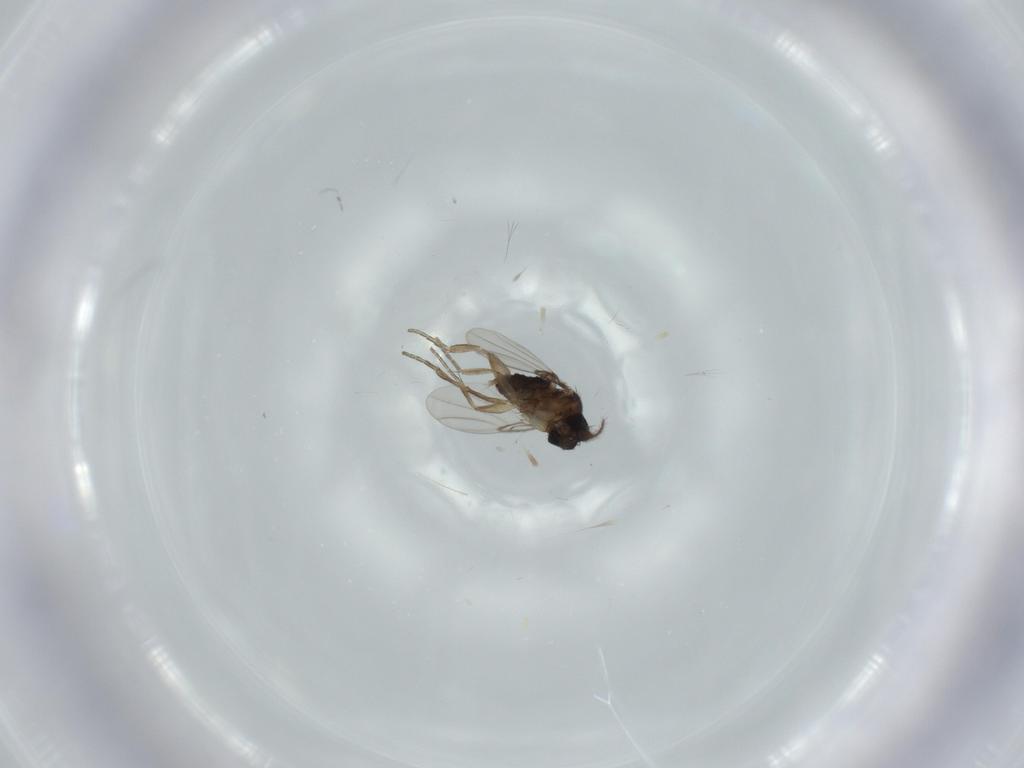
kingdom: Animalia
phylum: Arthropoda
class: Insecta
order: Diptera
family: Phoridae
